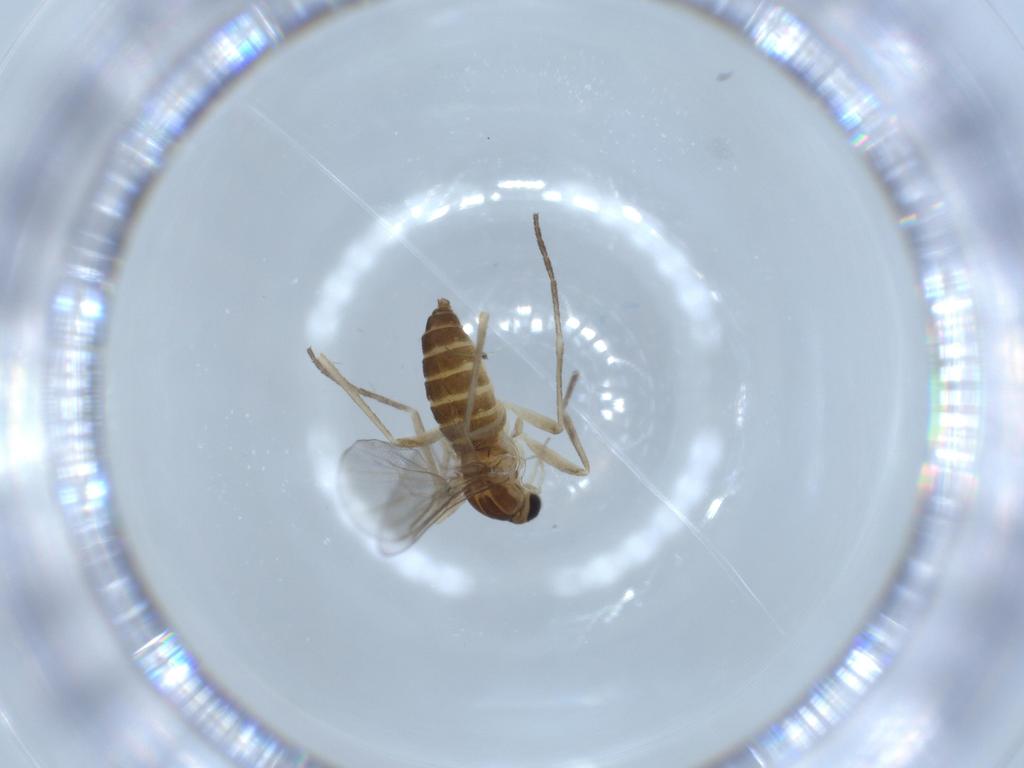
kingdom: Animalia
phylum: Arthropoda
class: Insecta
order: Diptera
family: Cecidomyiidae
